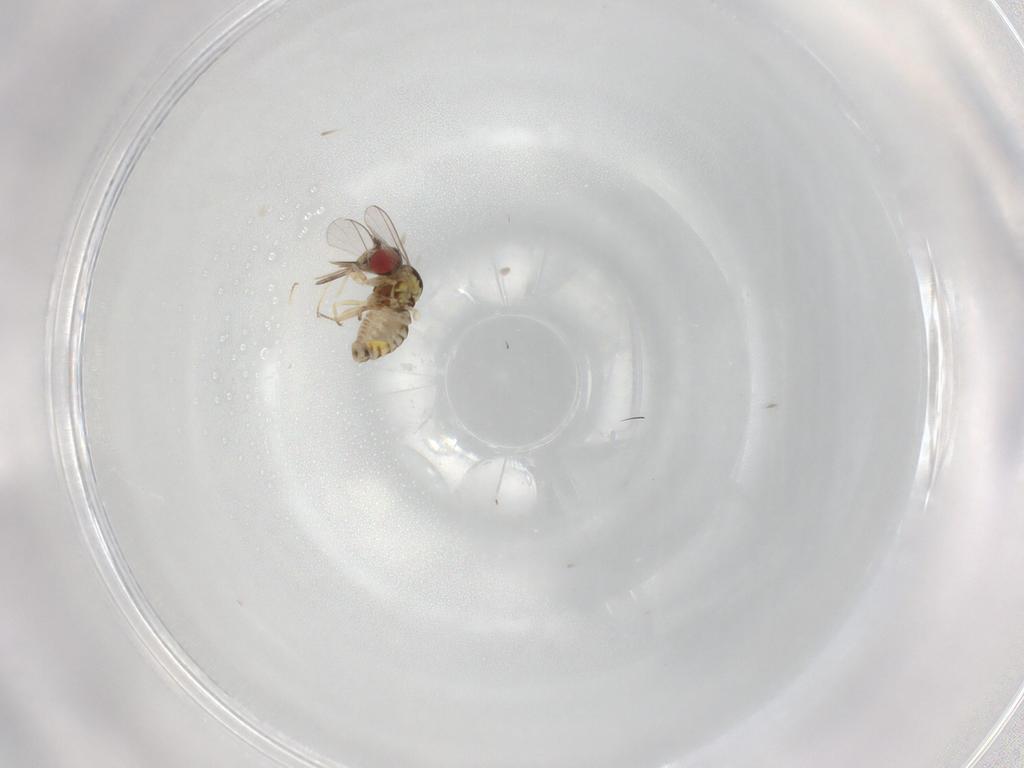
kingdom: Animalia
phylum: Arthropoda
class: Insecta
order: Diptera
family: Chloropidae
